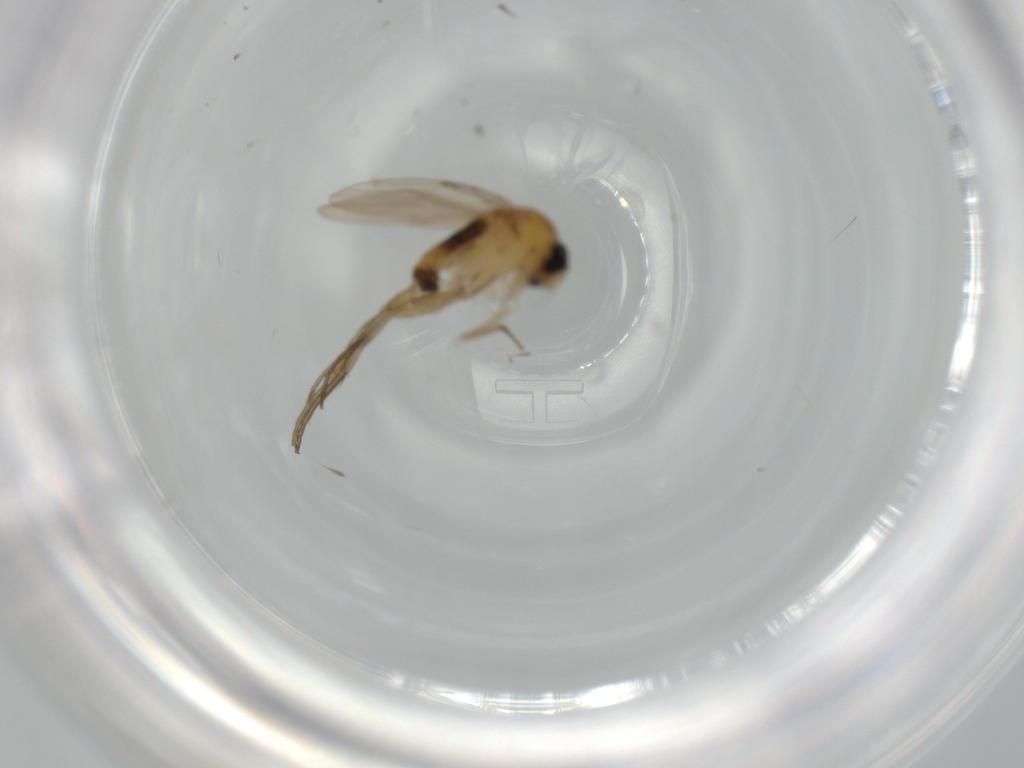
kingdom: Animalia
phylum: Arthropoda
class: Insecta
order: Diptera
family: Phoridae
